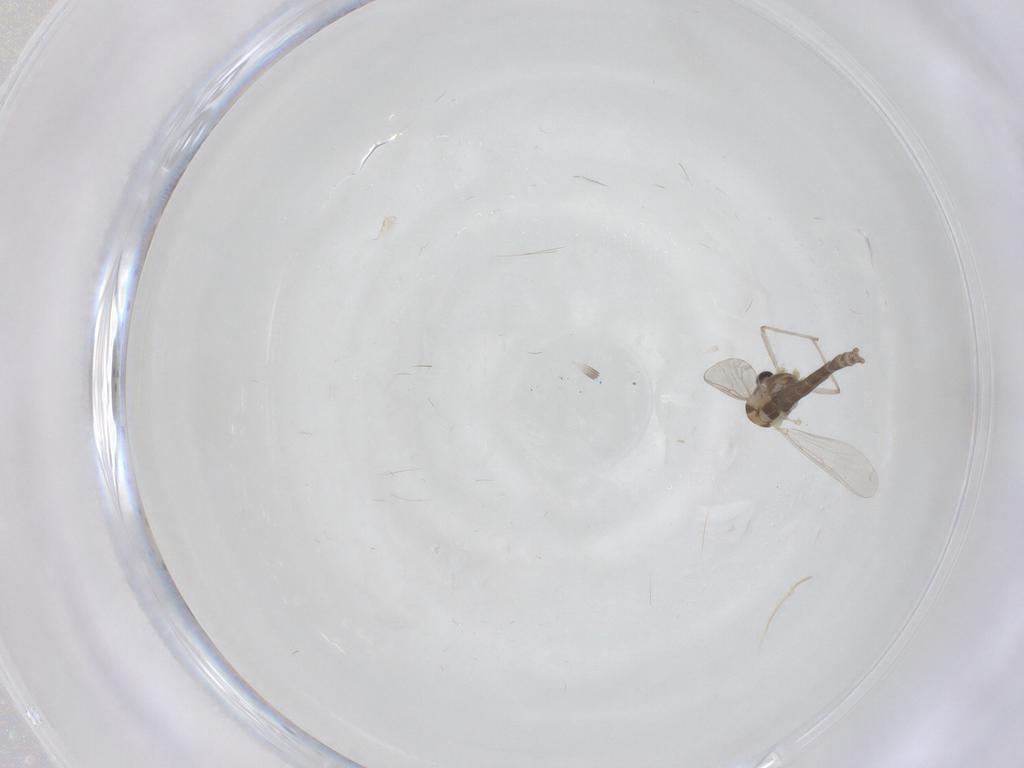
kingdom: Animalia
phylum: Arthropoda
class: Insecta
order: Diptera
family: Chironomidae
